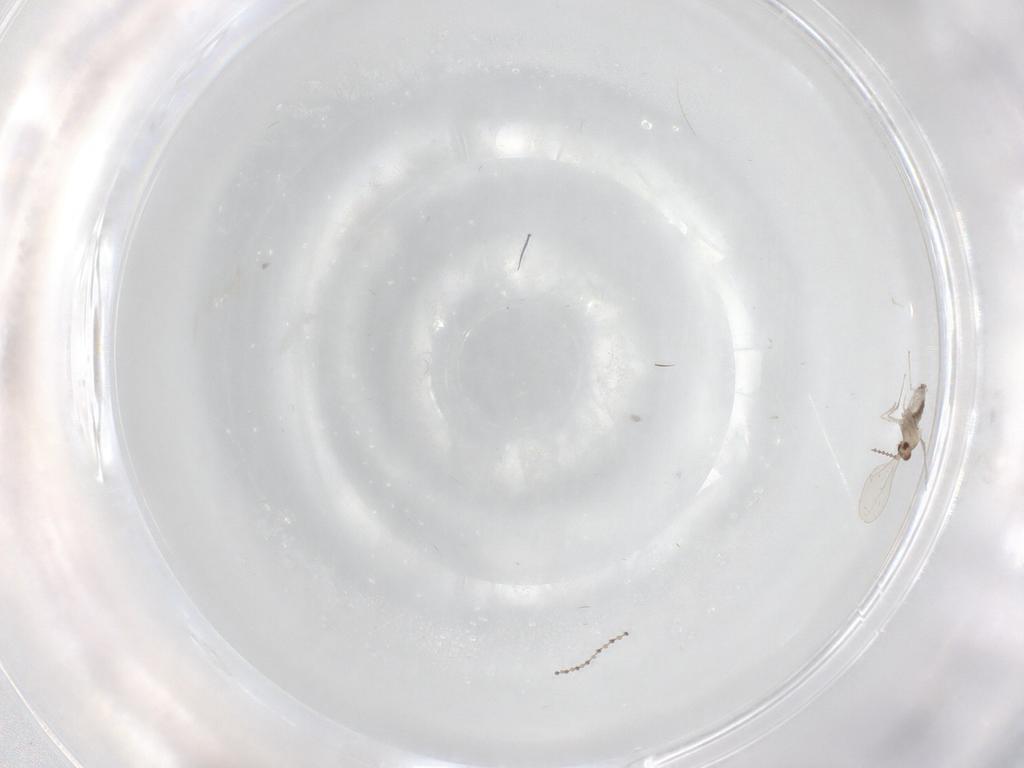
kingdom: Animalia
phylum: Arthropoda
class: Insecta
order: Diptera
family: Cecidomyiidae
